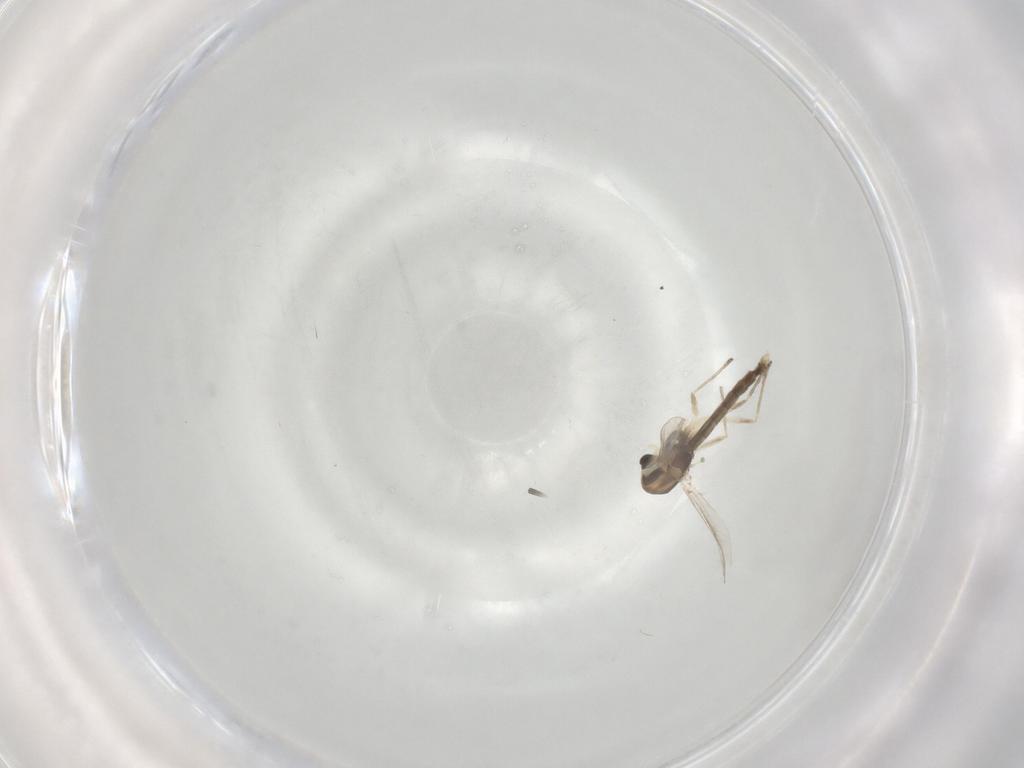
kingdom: Animalia
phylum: Arthropoda
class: Insecta
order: Diptera
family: Chironomidae
